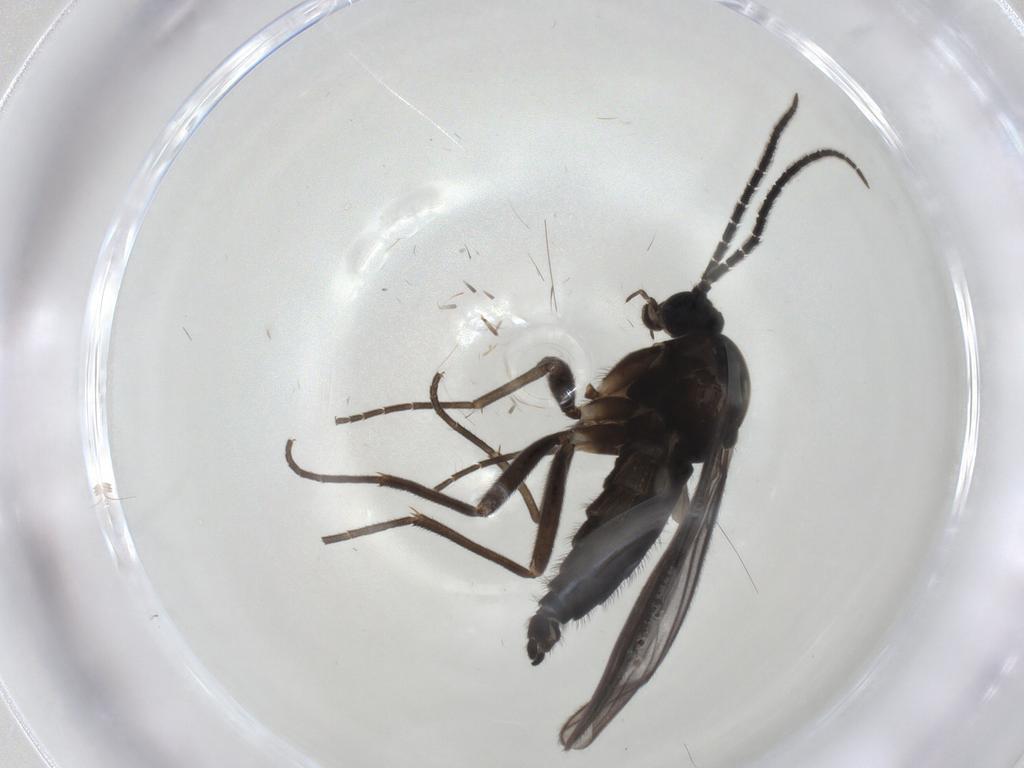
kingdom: Animalia
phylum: Arthropoda
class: Insecta
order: Diptera
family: Sciaridae
